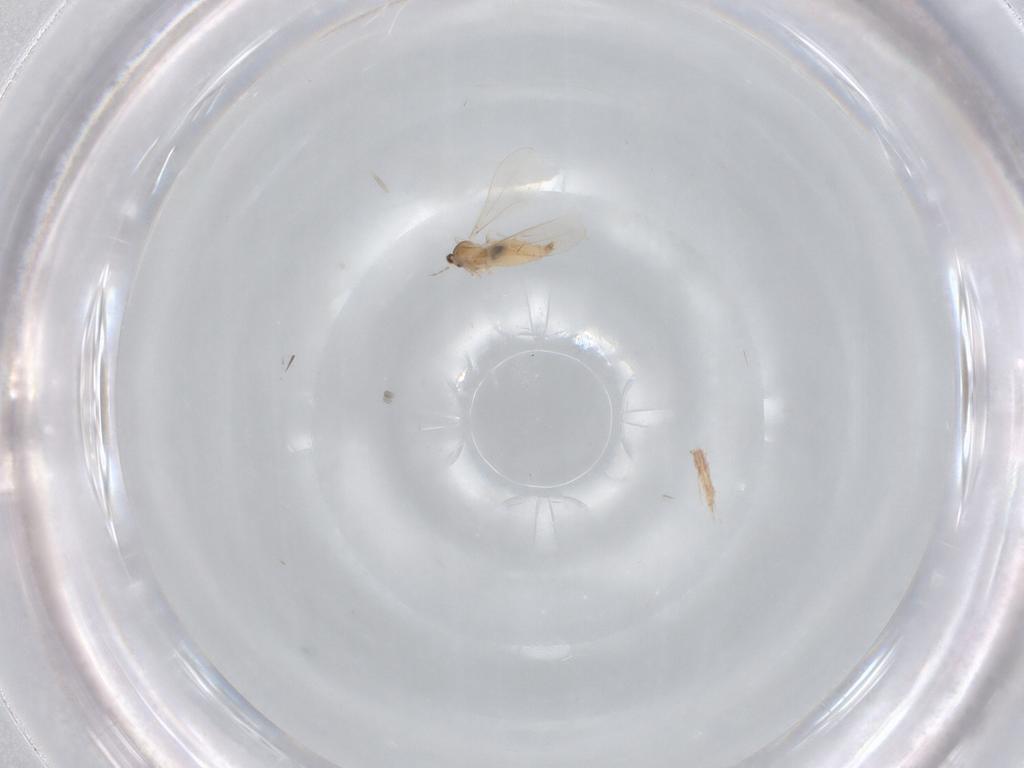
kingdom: Animalia
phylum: Arthropoda
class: Insecta
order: Diptera
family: Cecidomyiidae
